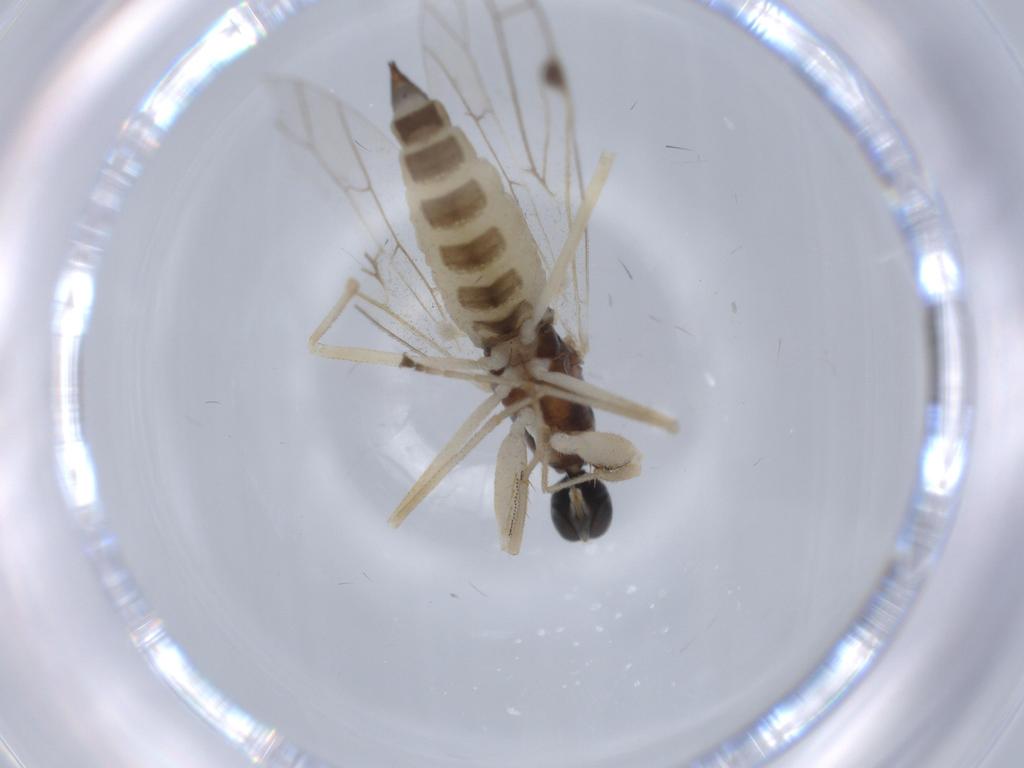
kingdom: Animalia
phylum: Arthropoda
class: Insecta
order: Diptera
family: Empididae
